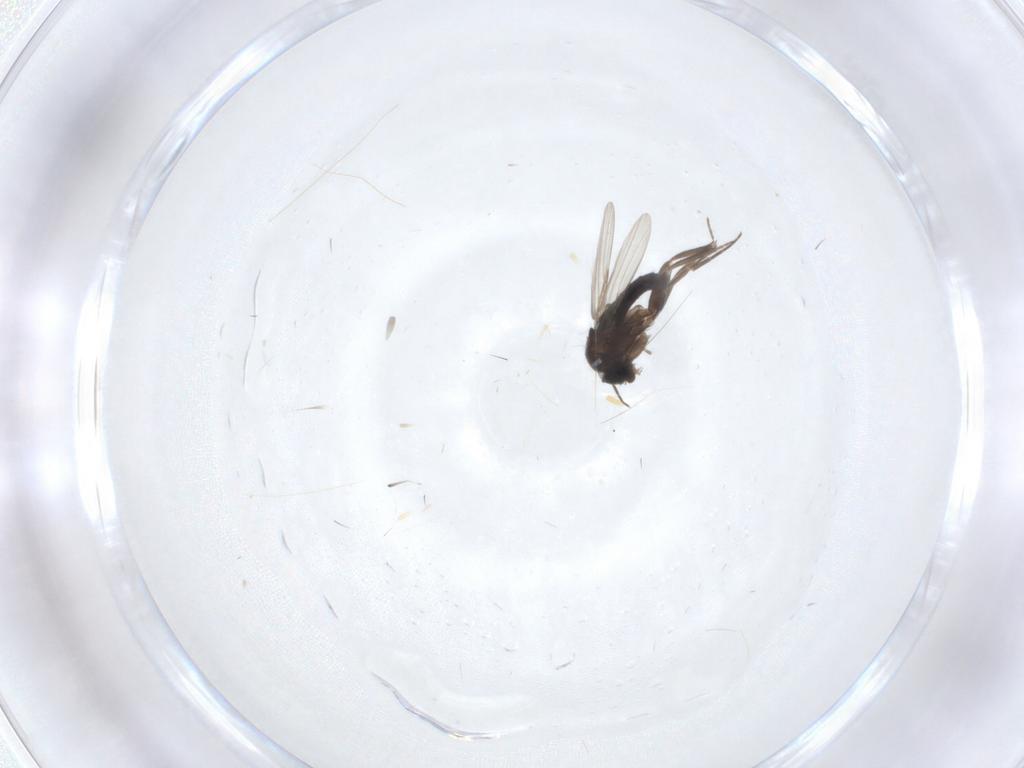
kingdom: Animalia
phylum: Arthropoda
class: Insecta
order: Diptera
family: Phoridae
